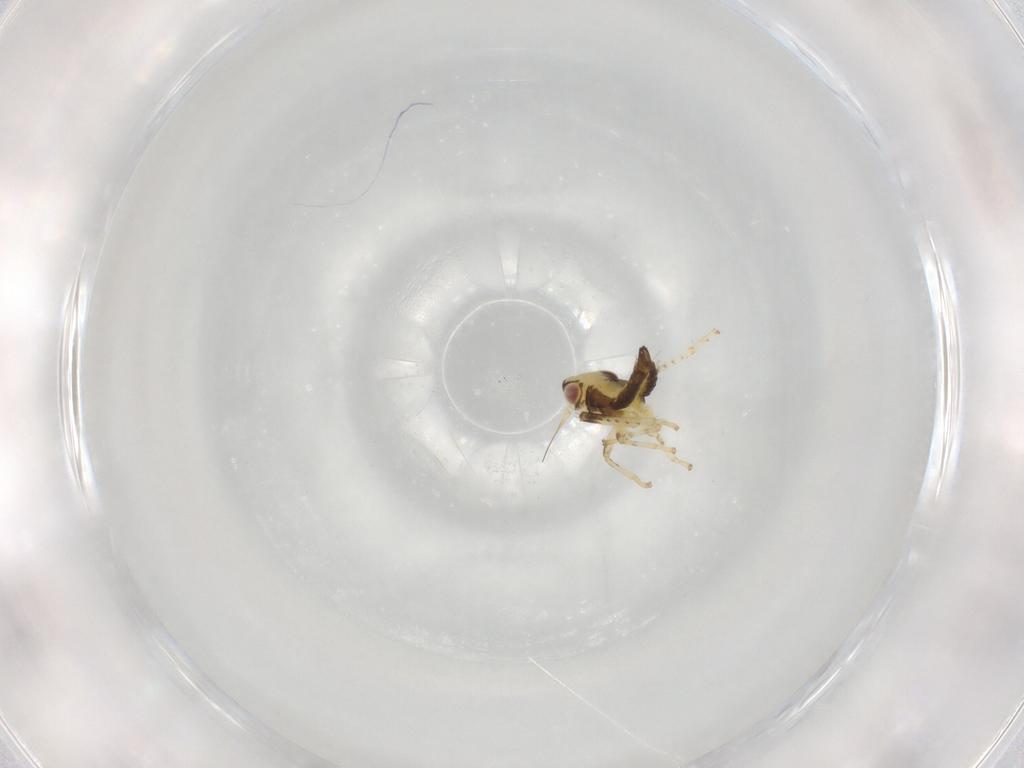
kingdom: Animalia
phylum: Arthropoda
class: Insecta
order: Hemiptera
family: Cicadellidae
